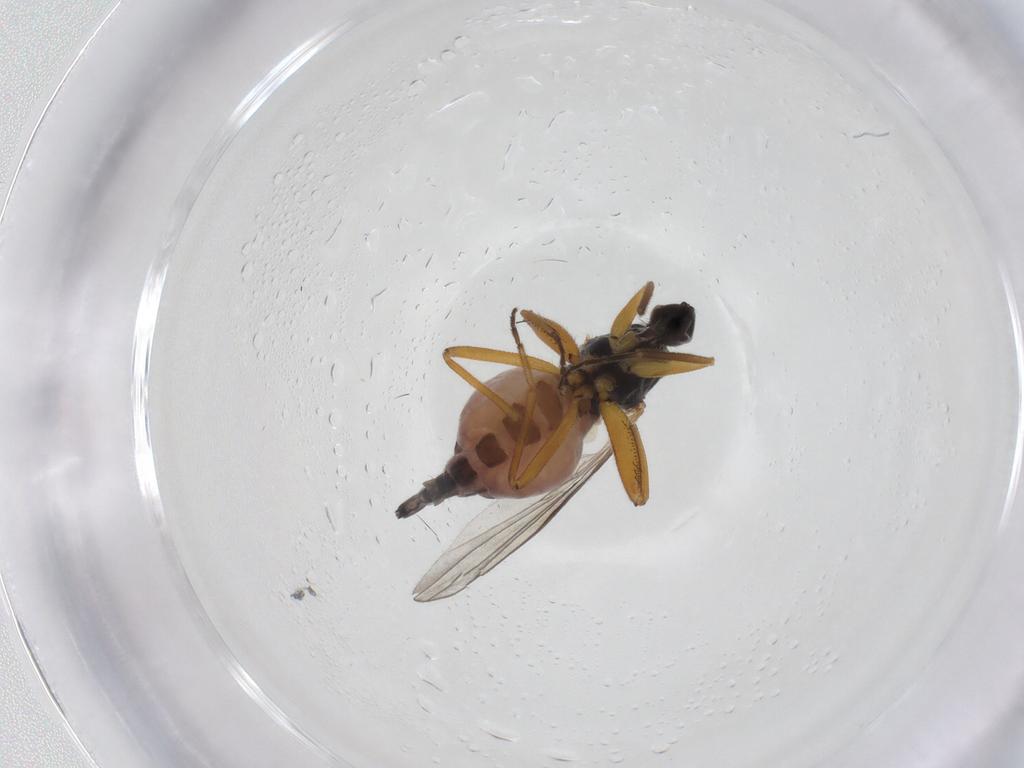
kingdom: Animalia
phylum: Arthropoda
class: Insecta
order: Diptera
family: Hybotidae
